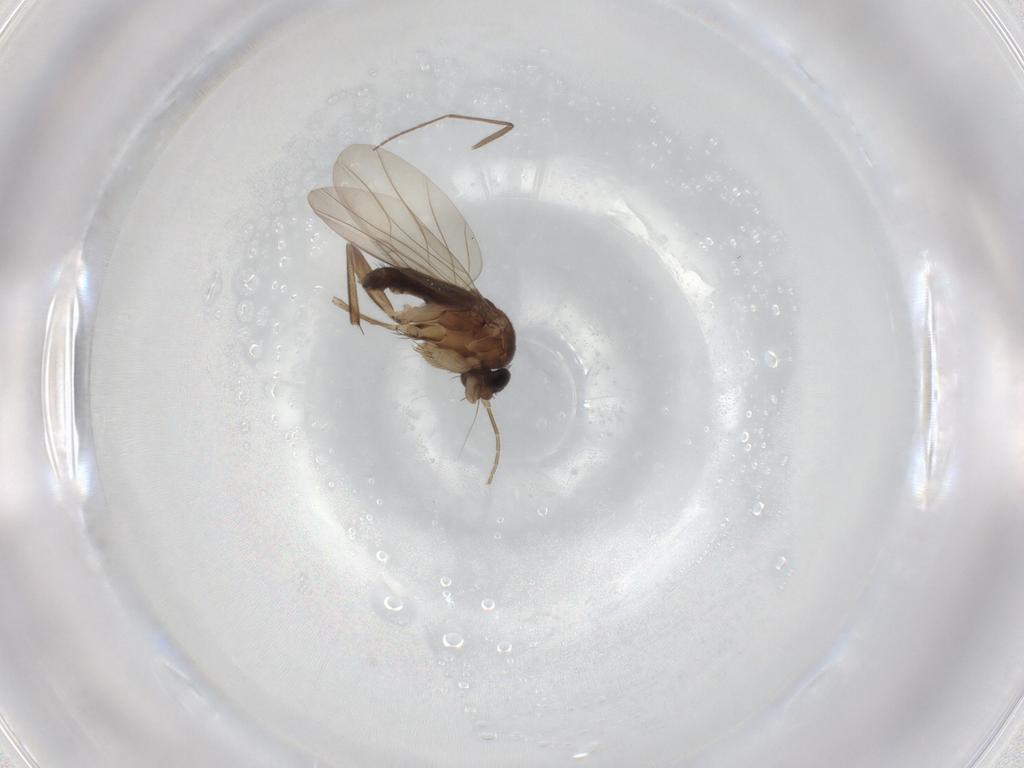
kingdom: Animalia
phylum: Arthropoda
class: Insecta
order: Diptera
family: Phoridae
